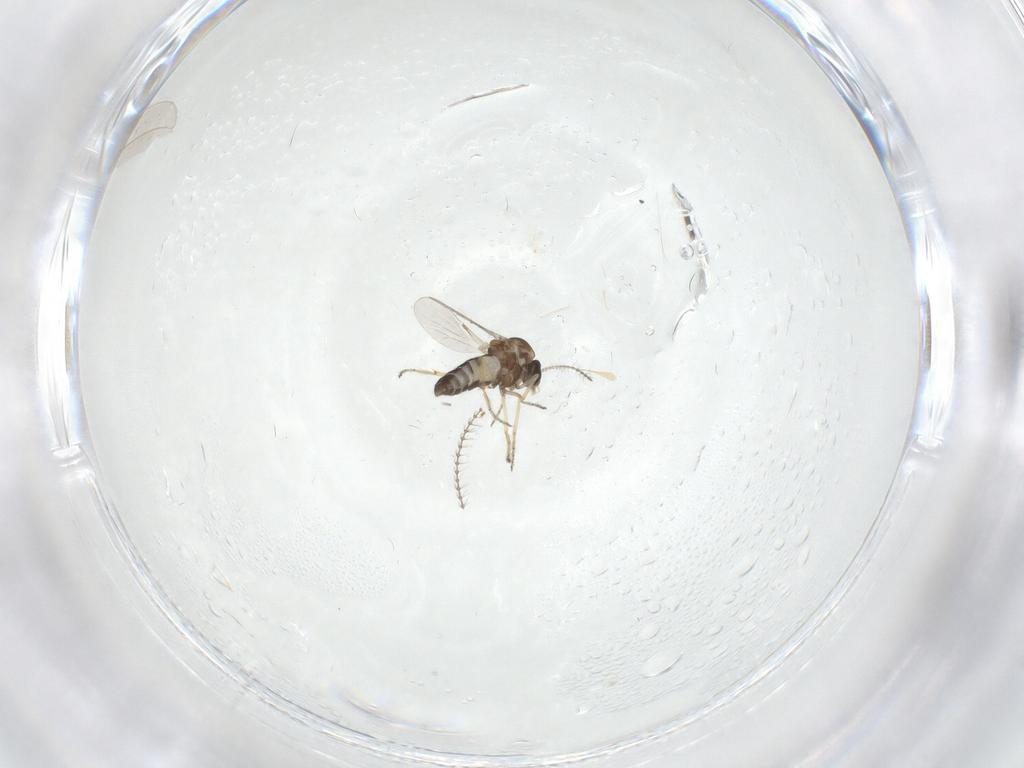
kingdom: Animalia
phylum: Arthropoda
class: Insecta
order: Diptera
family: Ceratopogonidae
